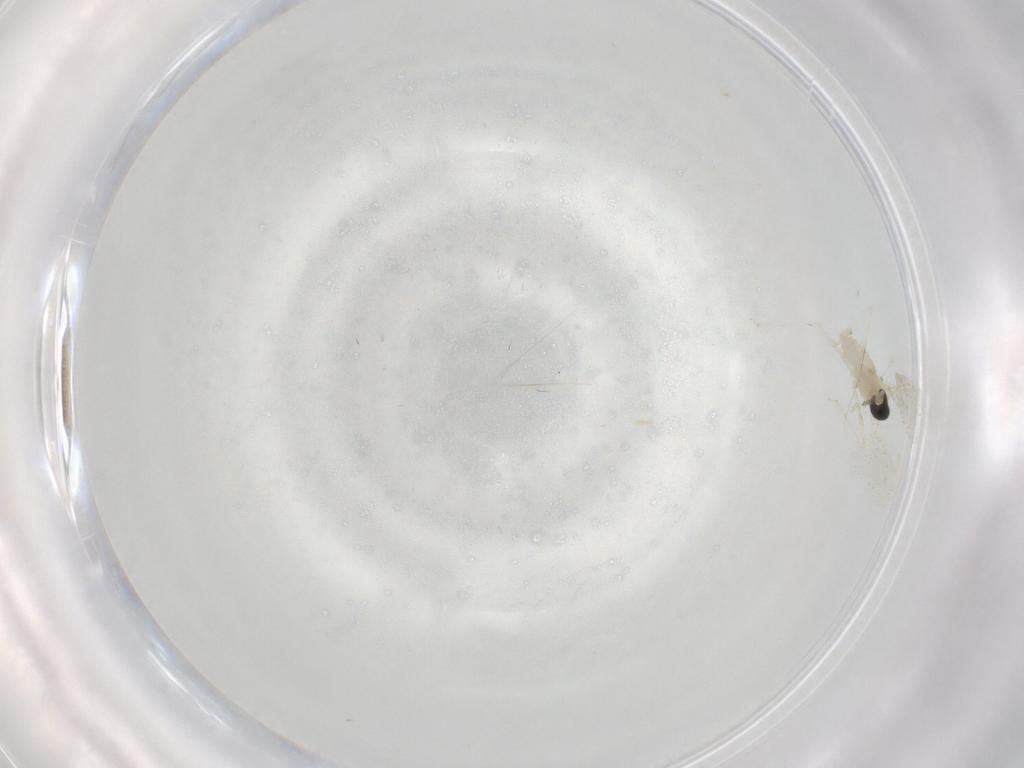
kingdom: Animalia
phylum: Arthropoda
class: Insecta
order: Diptera
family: Cecidomyiidae
